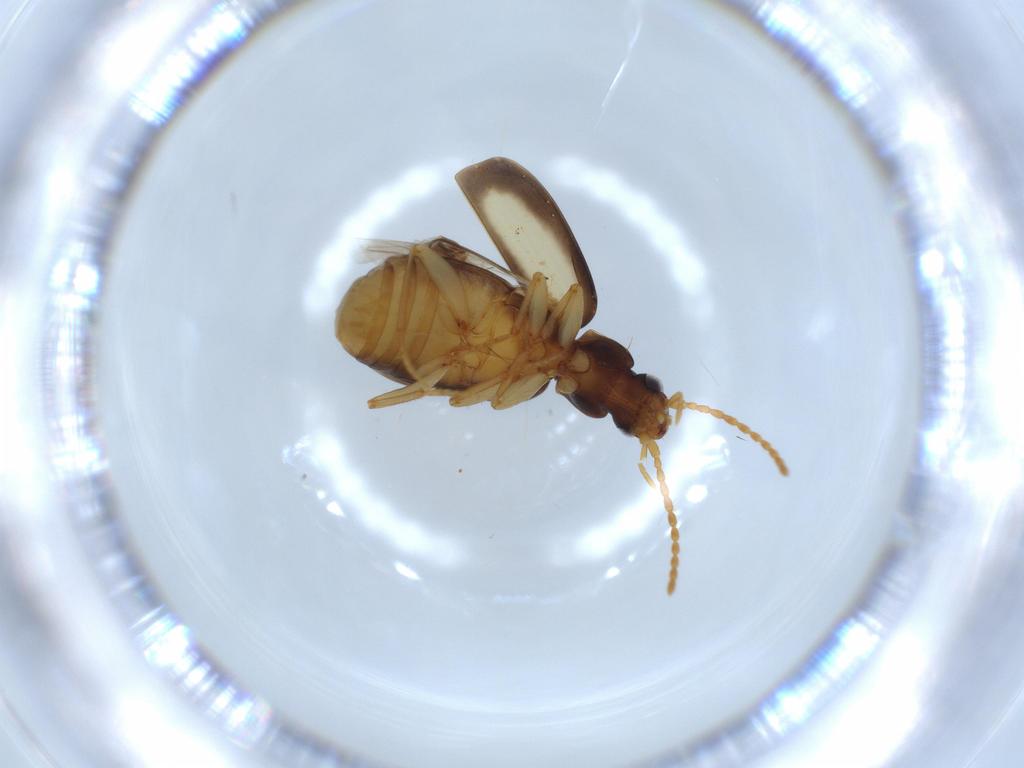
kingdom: Animalia
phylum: Arthropoda
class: Insecta
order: Coleoptera
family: Carabidae
